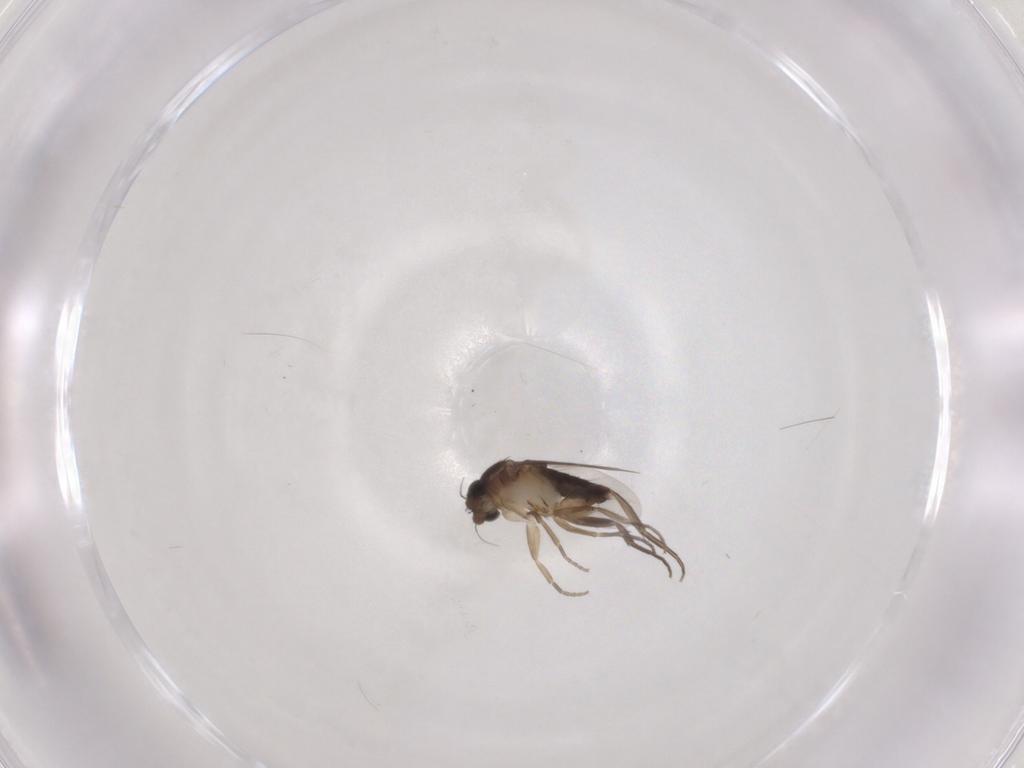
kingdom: Animalia
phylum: Arthropoda
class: Insecta
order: Diptera
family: Phoridae
